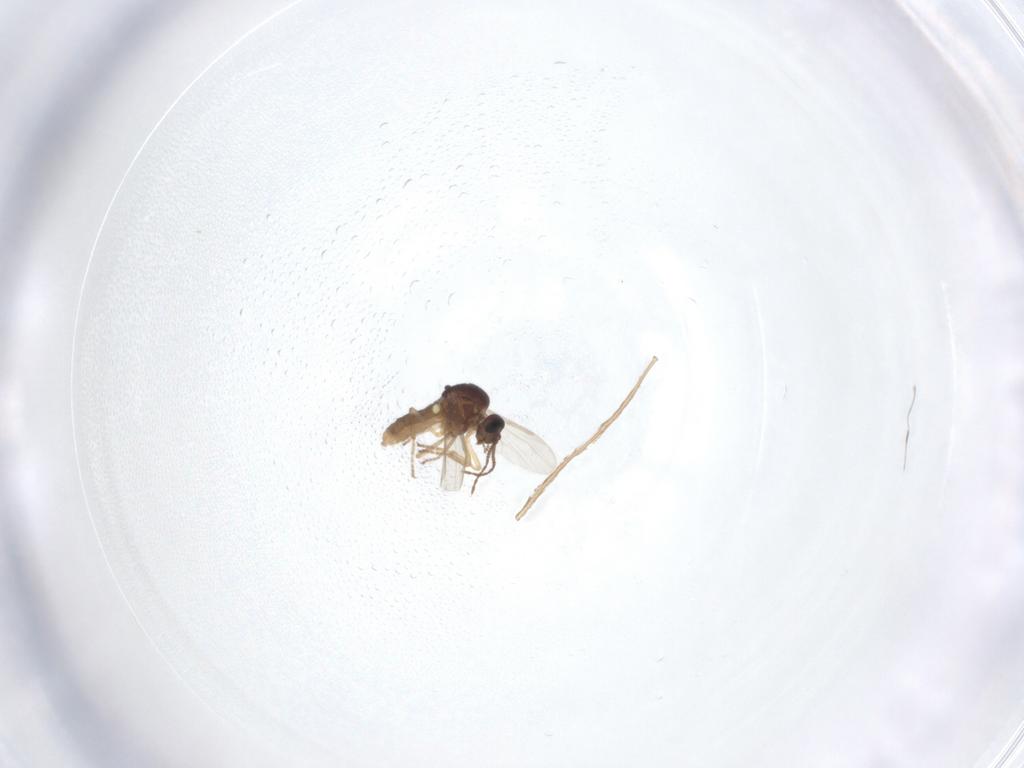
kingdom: Animalia
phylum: Arthropoda
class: Insecta
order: Diptera
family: Ceratopogonidae
